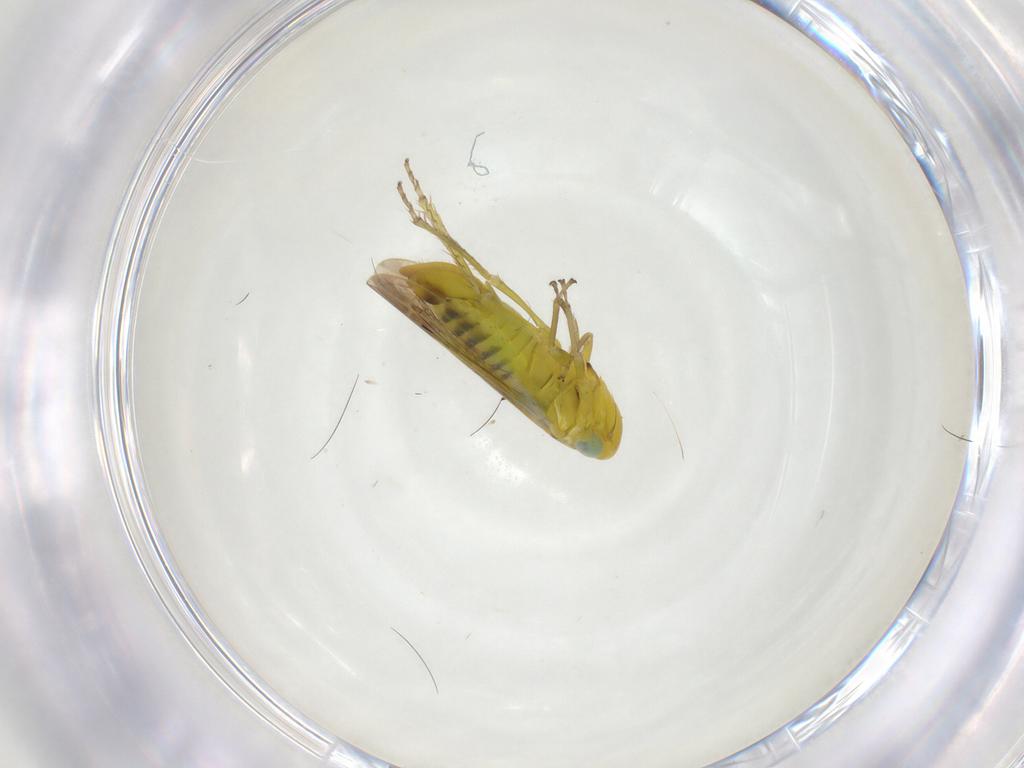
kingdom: Animalia
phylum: Arthropoda
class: Insecta
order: Hemiptera
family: Cicadellidae
